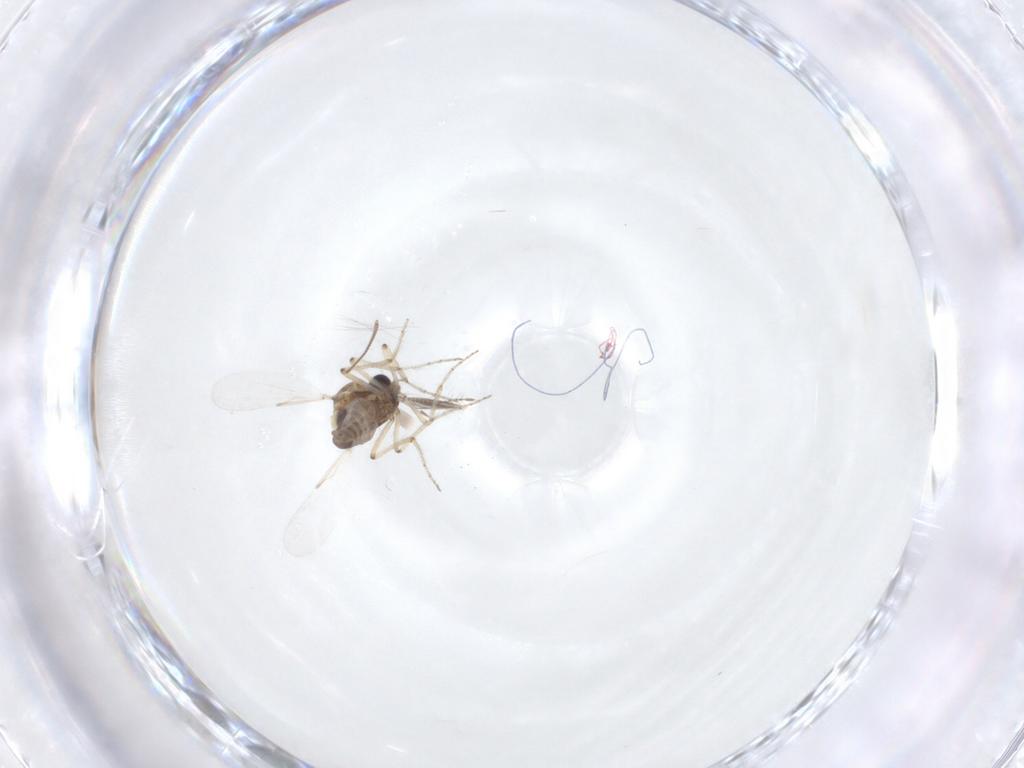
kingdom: Animalia
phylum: Arthropoda
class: Insecta
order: Diptera
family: Ceratopogonidae
